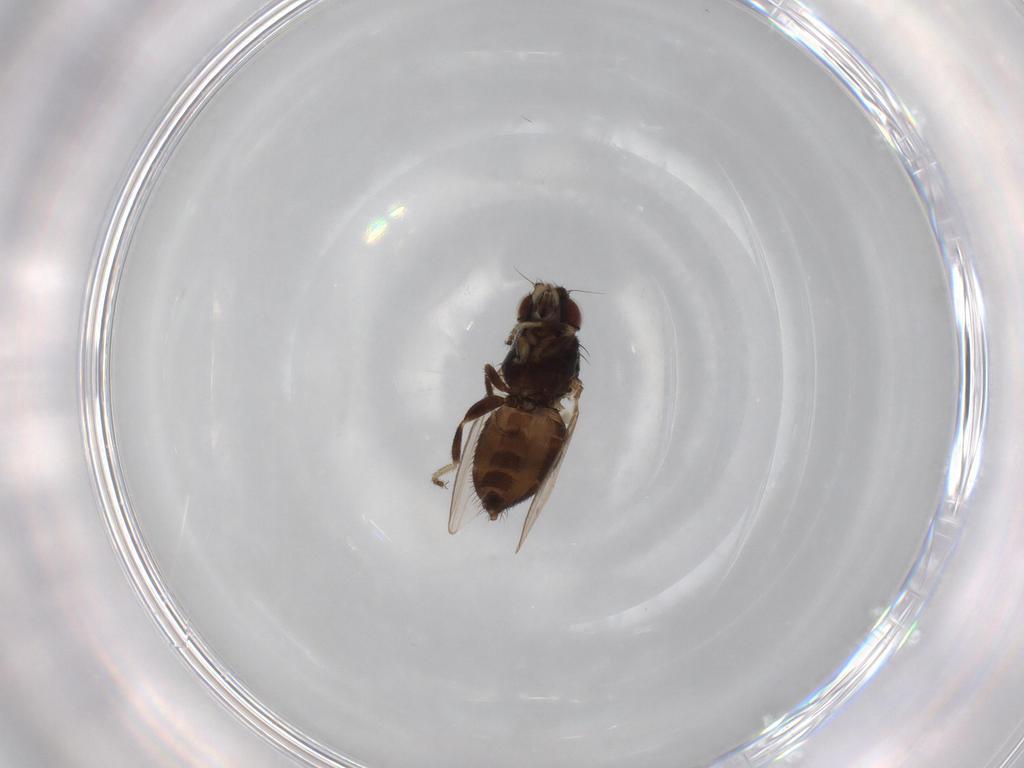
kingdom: Animalia
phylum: Arthropoda
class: Insecta
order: Diptera
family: Milichiidae
